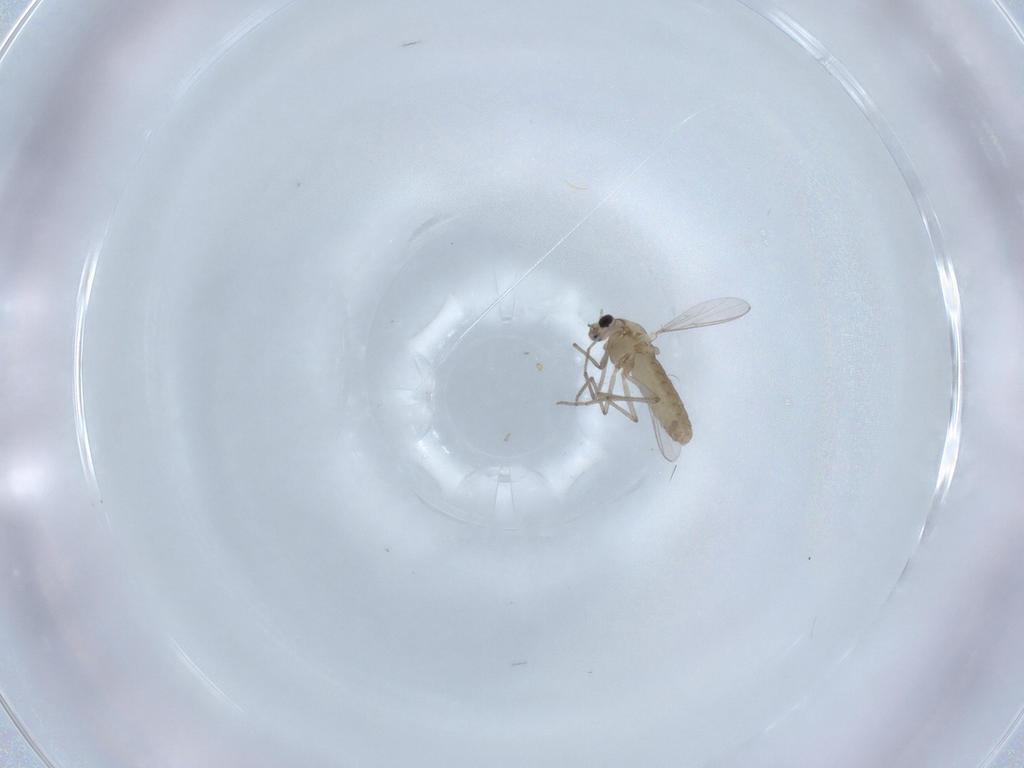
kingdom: Animalia
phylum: Arthropoda
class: Insecta
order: Diptera
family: Chironomidae
